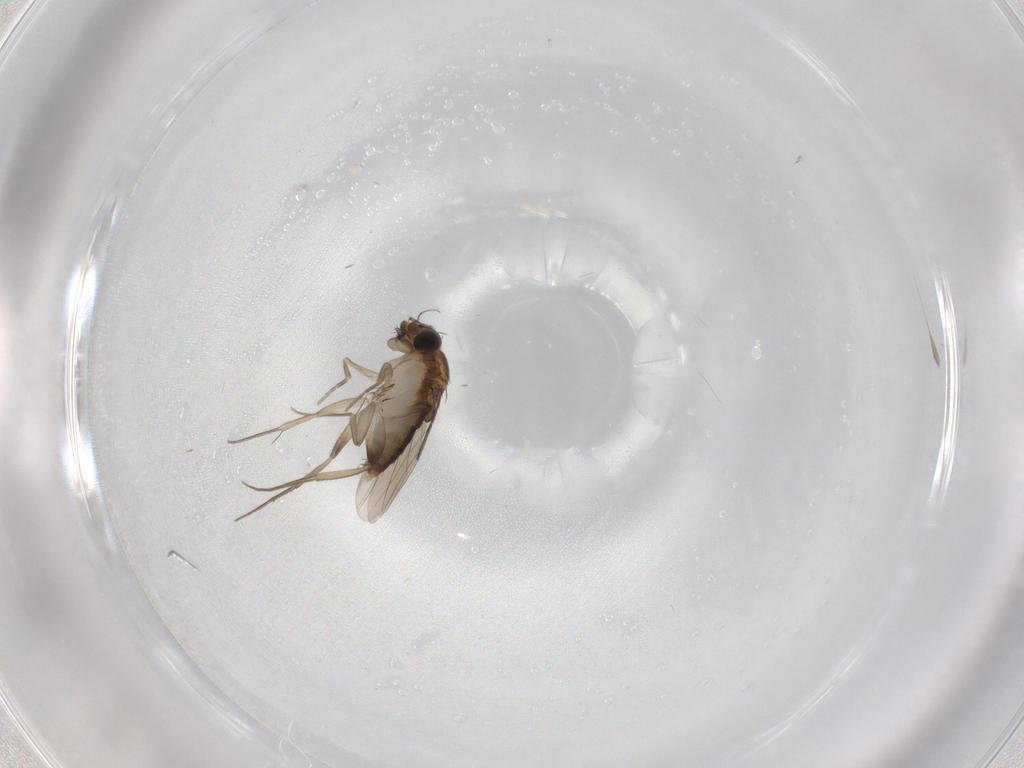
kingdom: Animalia
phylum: Arthropoda
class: Insecta
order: Diptera
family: Phoridae
